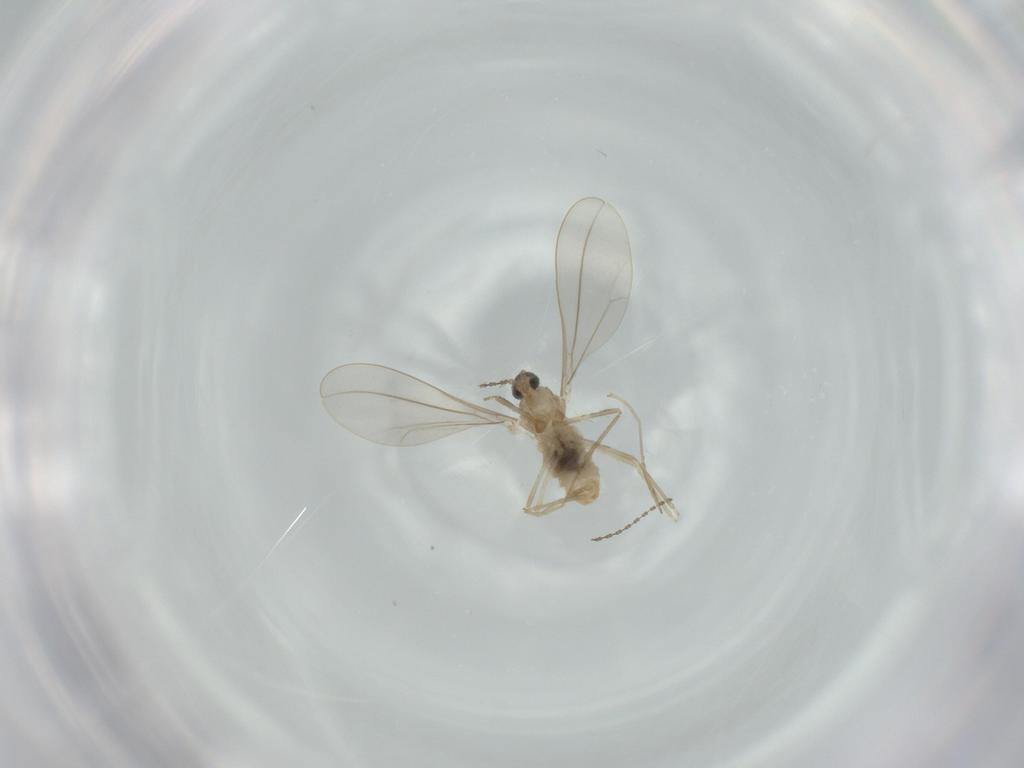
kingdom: Animalia
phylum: Arthropoda
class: Insecta
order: Diptera
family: Cecidomyiidae
